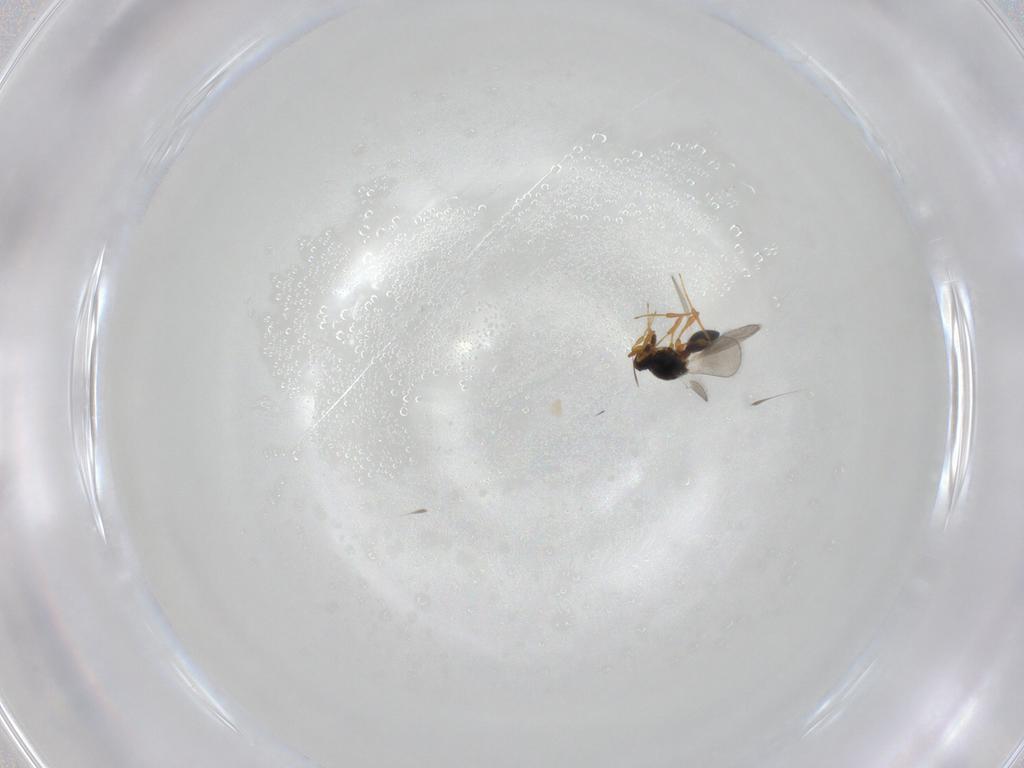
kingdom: Animalia
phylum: Arthropoda
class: Insecta
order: Hymenoptera
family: Platygastridae
